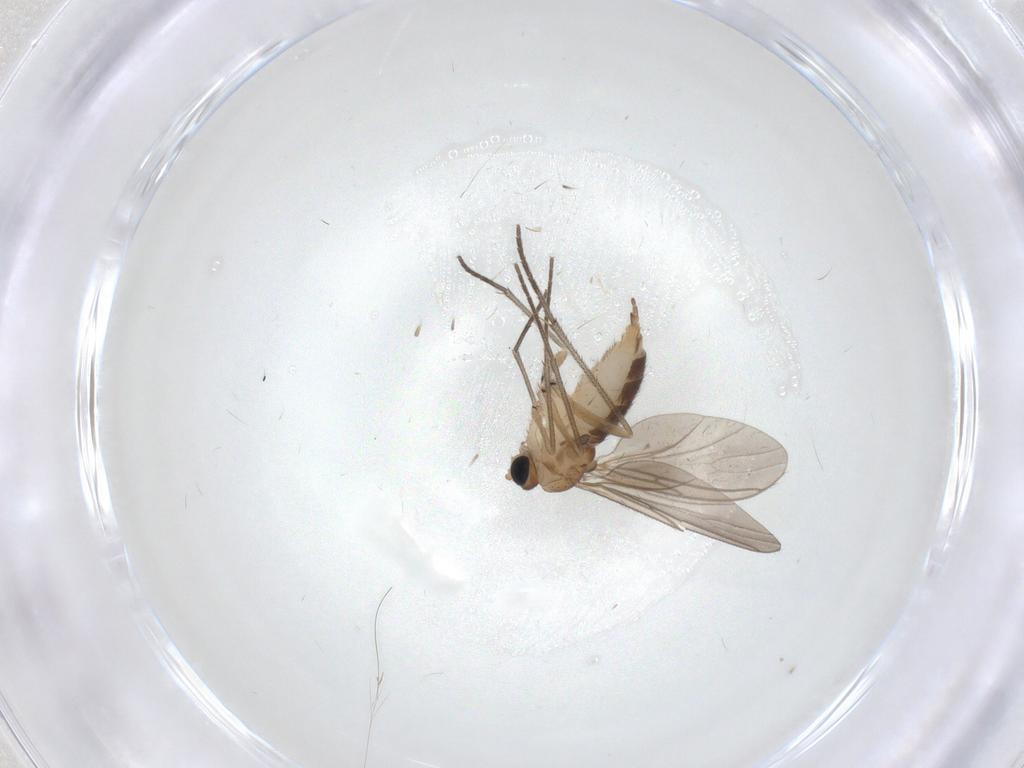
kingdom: Animalia
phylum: Arthropoda
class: Insecta
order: Diptera
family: Sciaridae
